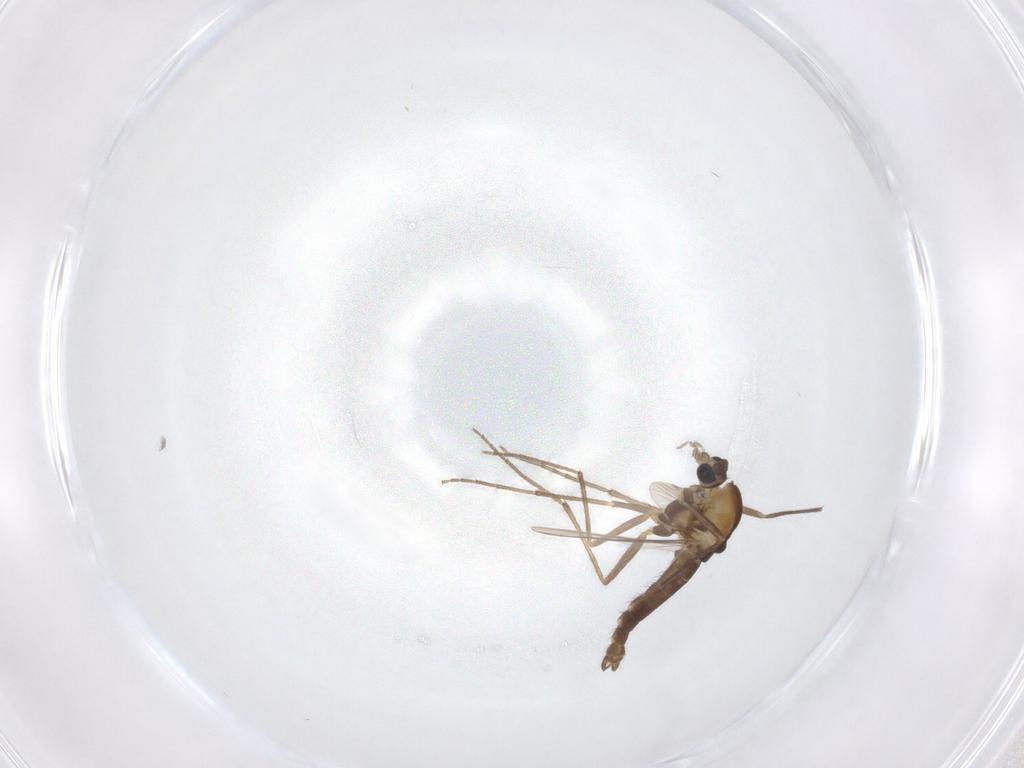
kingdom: Animalia
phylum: Arthropoda
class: Insecta
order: Diptera
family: Chironomidae
